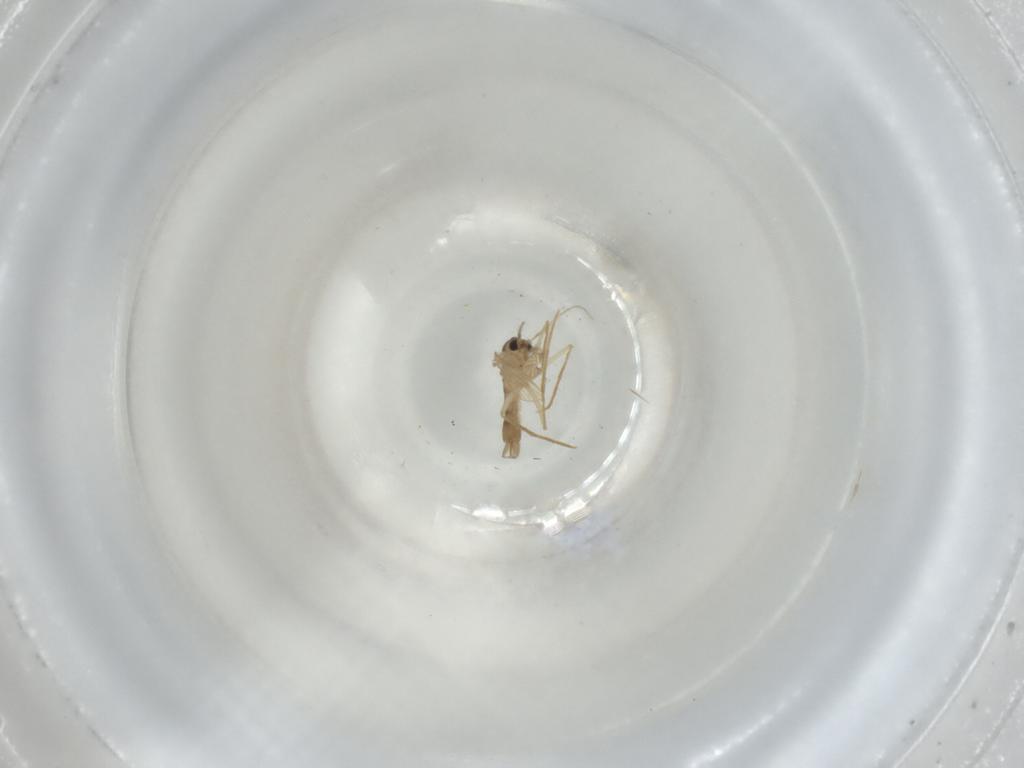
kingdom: Animalia
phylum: Arthropoda
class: Insecta
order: Diptera
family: Psychodidae
